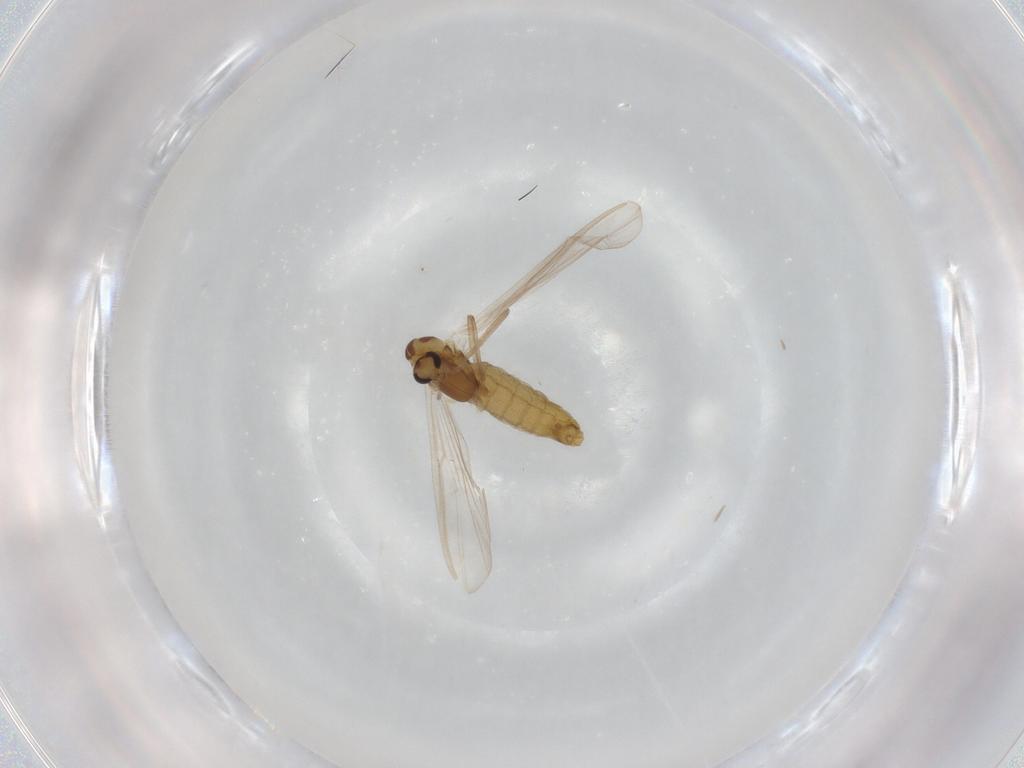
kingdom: Animalia
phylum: Arthropoda
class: Insecta
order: Diptera
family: Chironomidae
